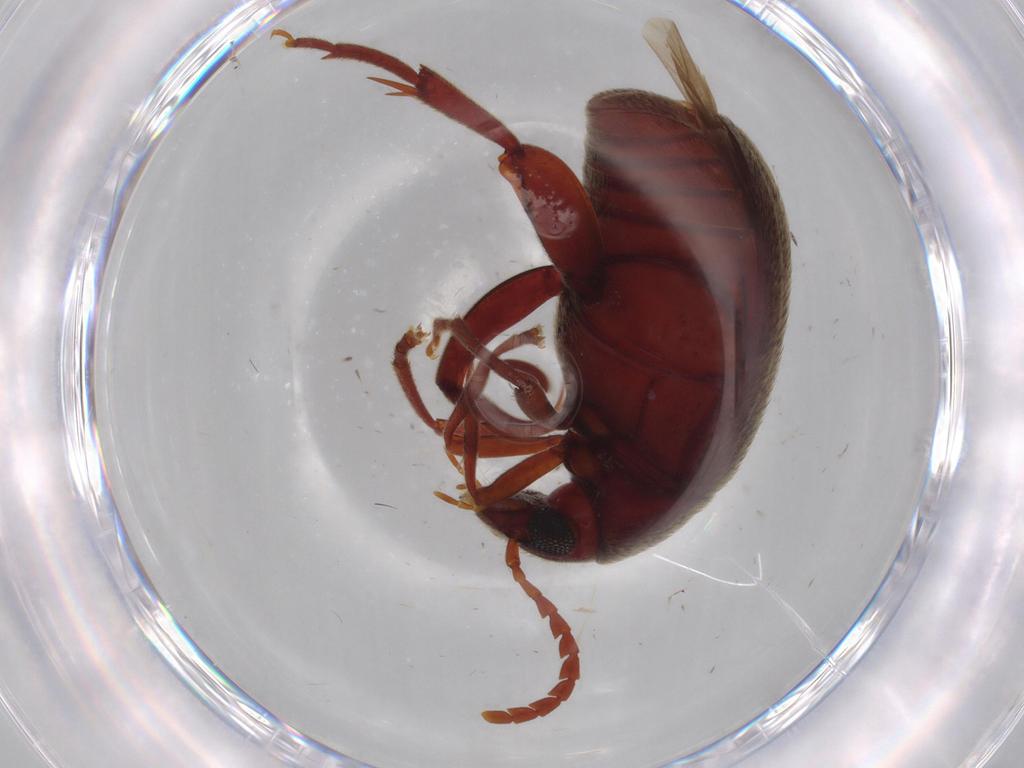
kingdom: Animalia
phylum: Arthropoda
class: Insecta
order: Coleoptera
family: Chrysomelidae
